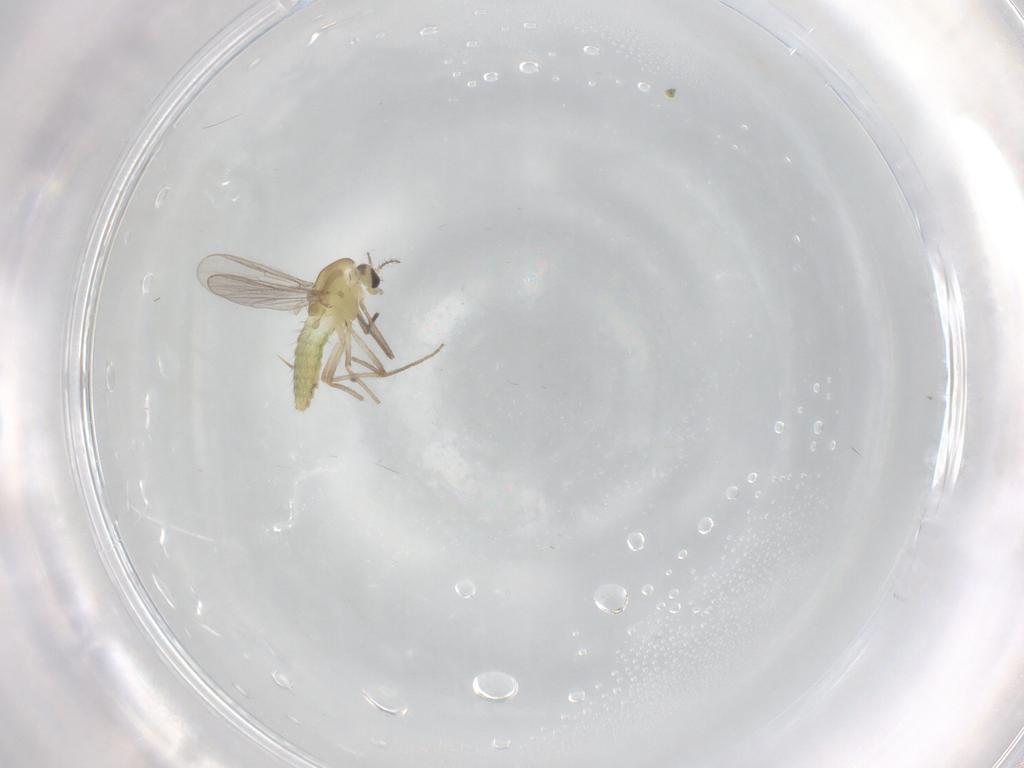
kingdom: Animalia
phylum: Arthropoda
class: Insecta
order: Diptera
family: Chironomidae
